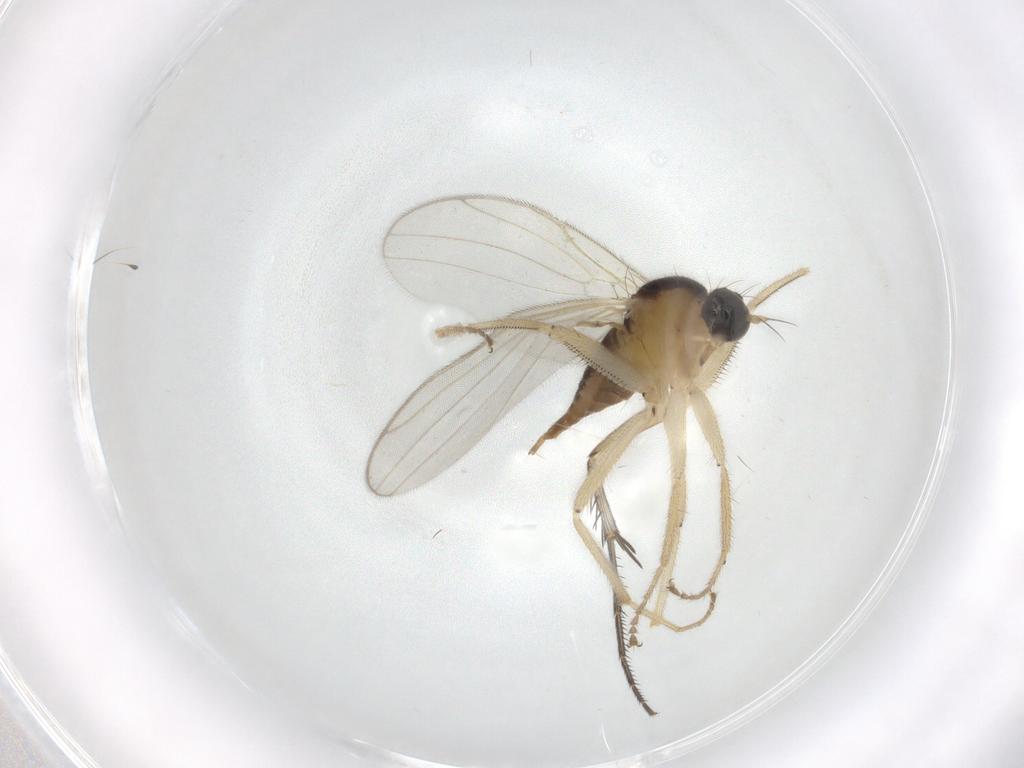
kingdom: Animalia
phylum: Arthropoda
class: Insecta
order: Diptera
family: Hybotidae
